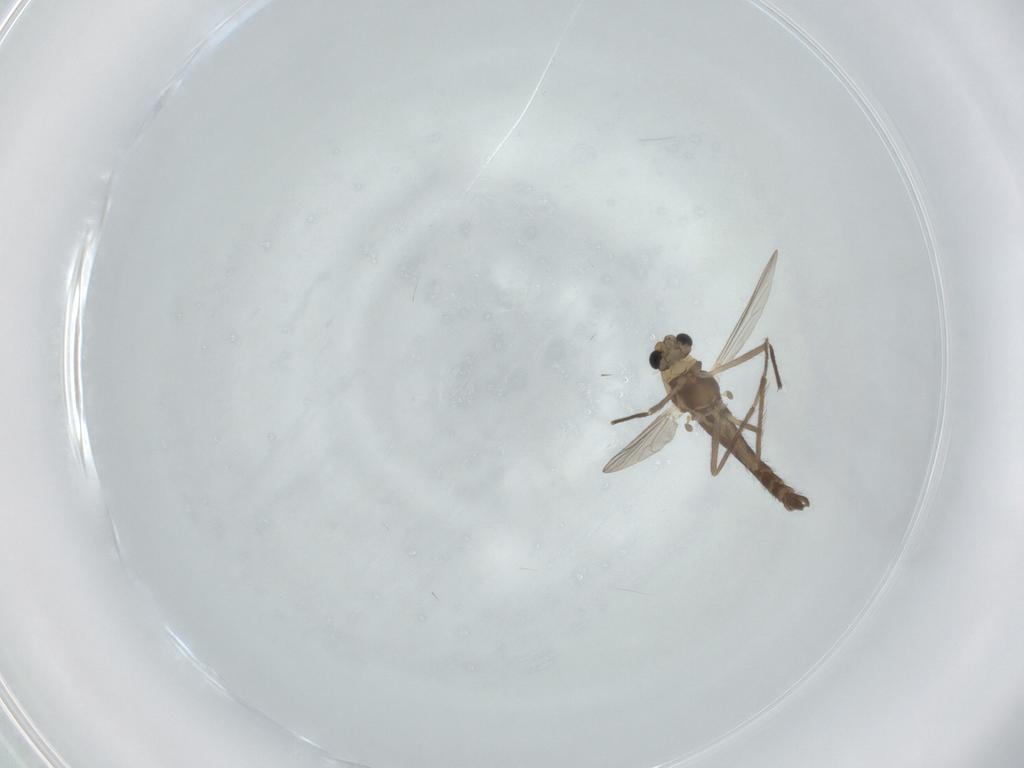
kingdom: Animalia
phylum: Arthropoda
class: Insecta
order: Diptera
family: Chironomidae
